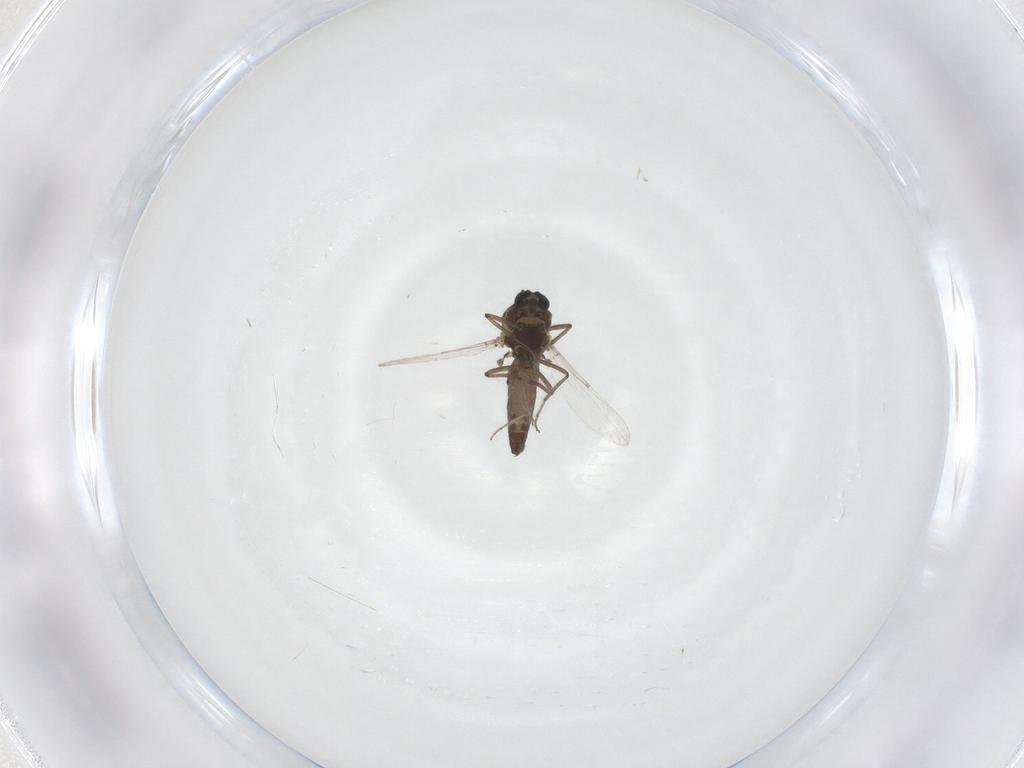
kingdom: Animalia
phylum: Arthropoda
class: Insecta
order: Diptera
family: Ceratopogonidae
